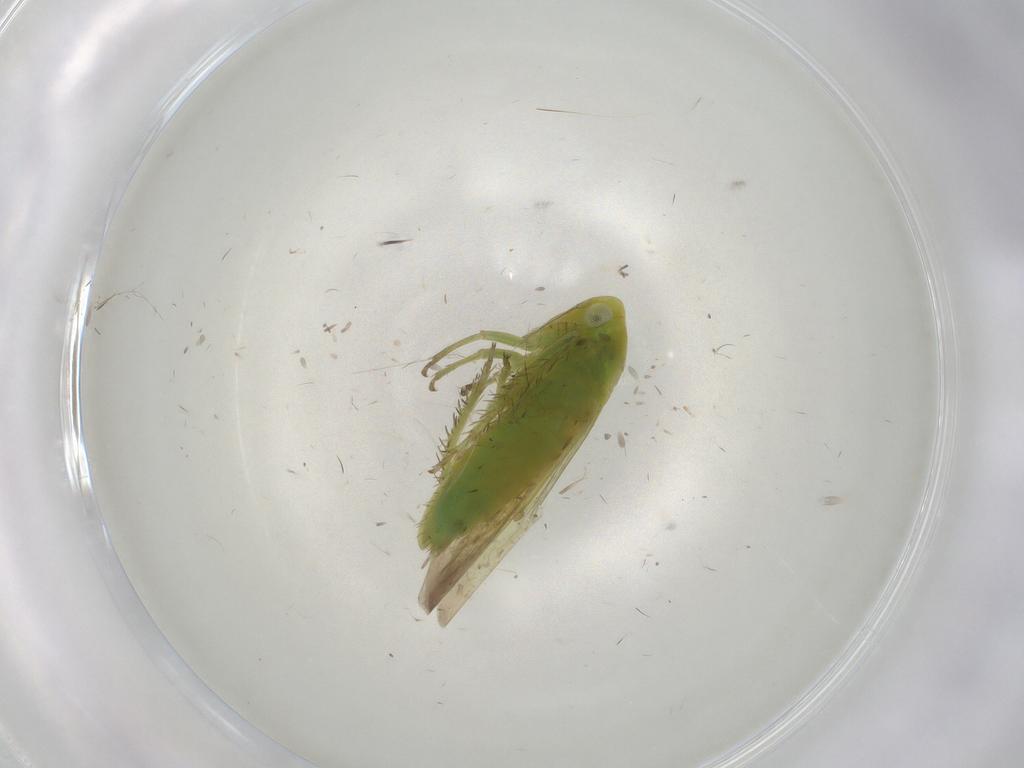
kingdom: Animalia
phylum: Arthropoda
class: Insecta
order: Hemiptera
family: Cicadellidae
